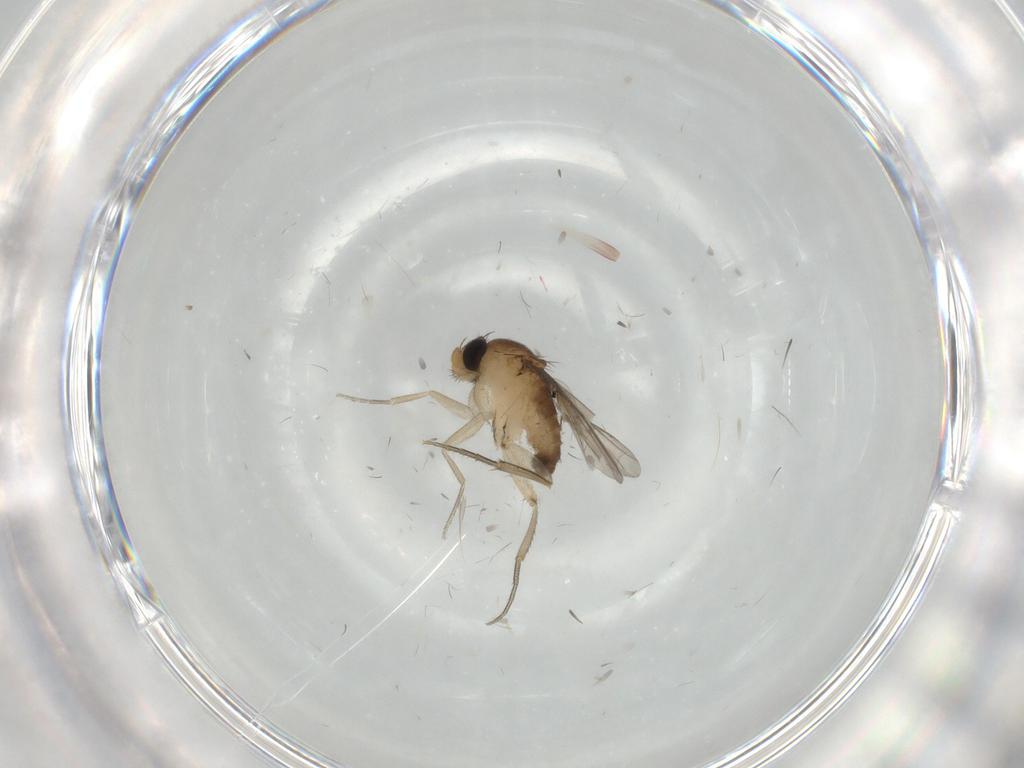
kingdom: Animalia
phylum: Arthropoda
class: Insecta
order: Diptera
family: Phoridae
